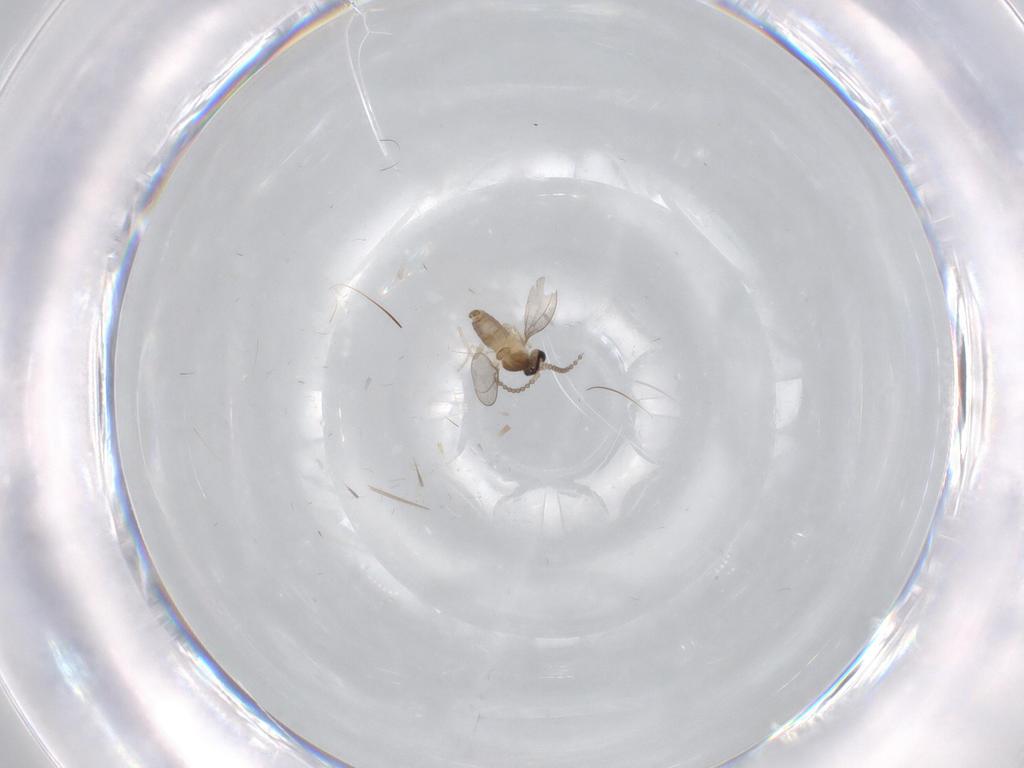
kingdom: Animalia
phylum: Arthropoda
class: Insecta
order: Diptera
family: Cecidomyiidae
